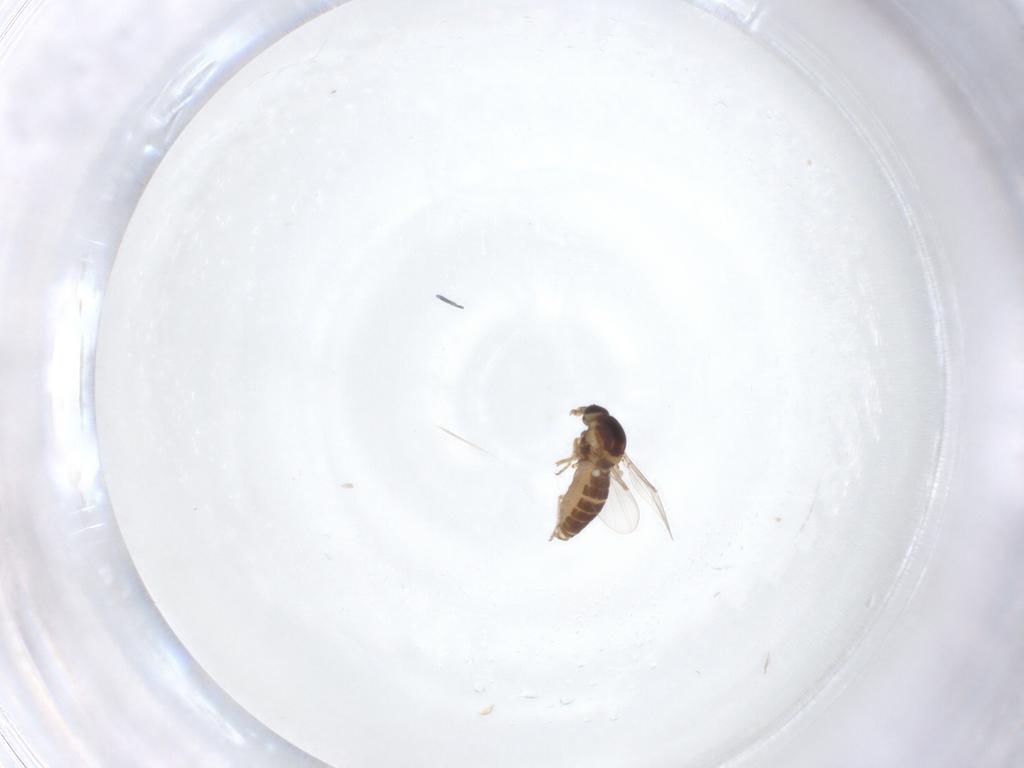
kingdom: Animalia
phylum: Arthropoda
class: Insecta
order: Diptera
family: Ceratopogonidae
